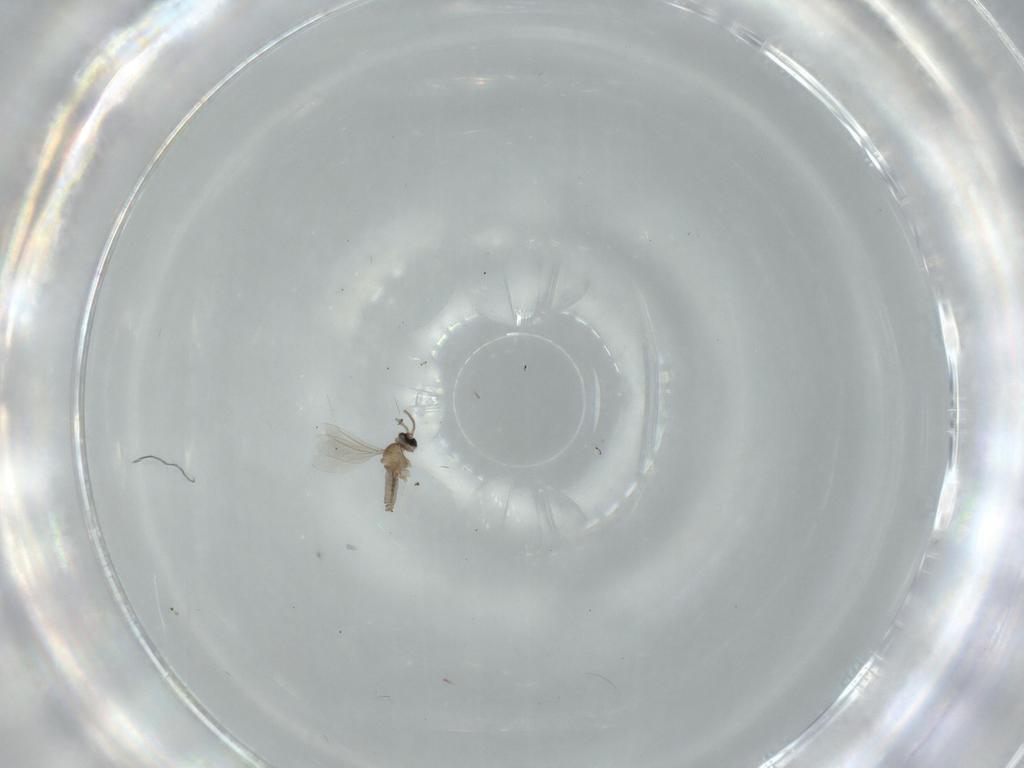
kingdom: Animalia
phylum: Arthropoda
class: Insecta
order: Diptera
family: Cecidomyiidae
